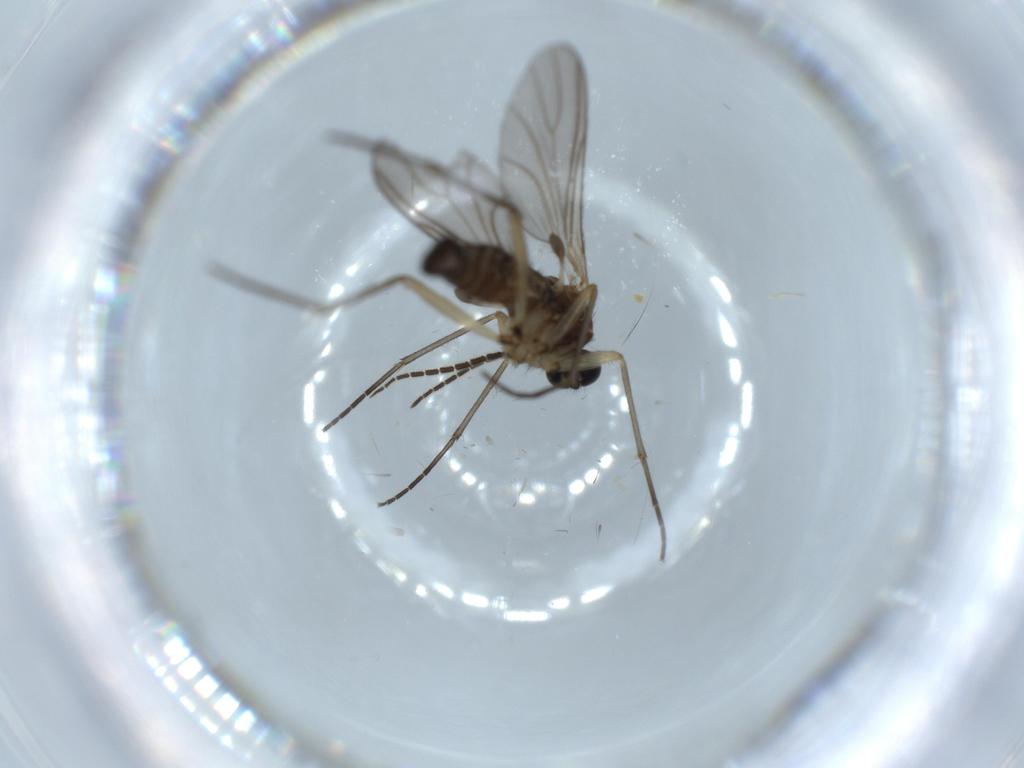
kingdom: Animalia
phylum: Arthropoda
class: Insecta
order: Diptera
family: Sciaridae
